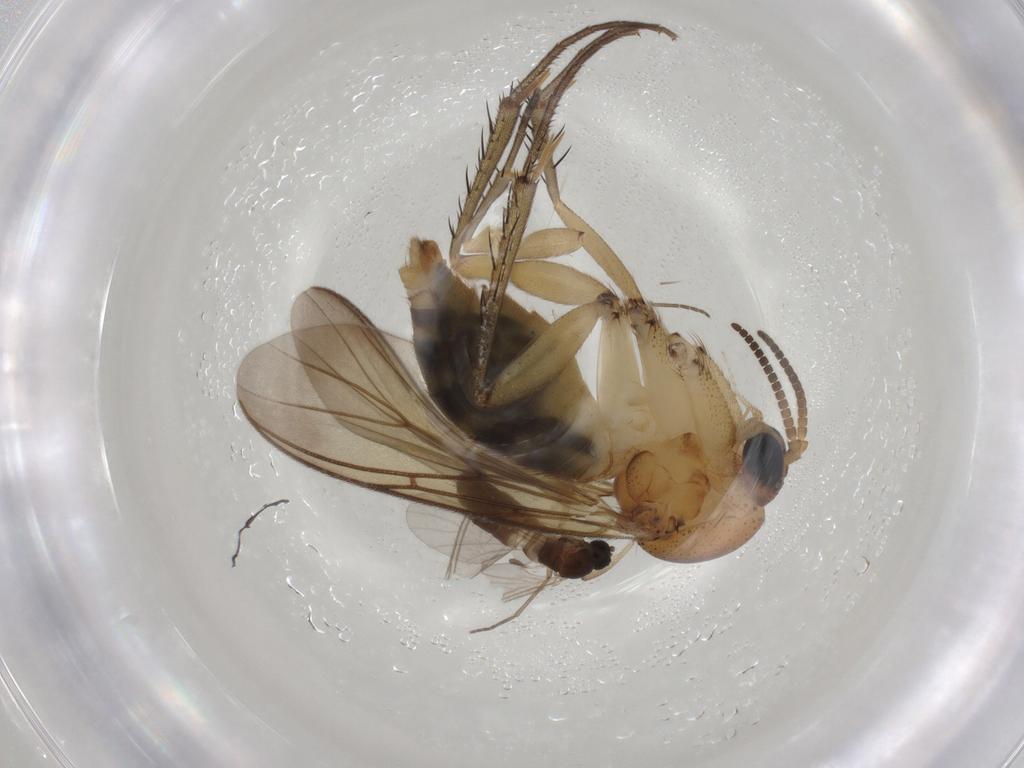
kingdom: Animalia
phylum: Arthropoda
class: Insecta
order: Diptera
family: Mycetophilidae
